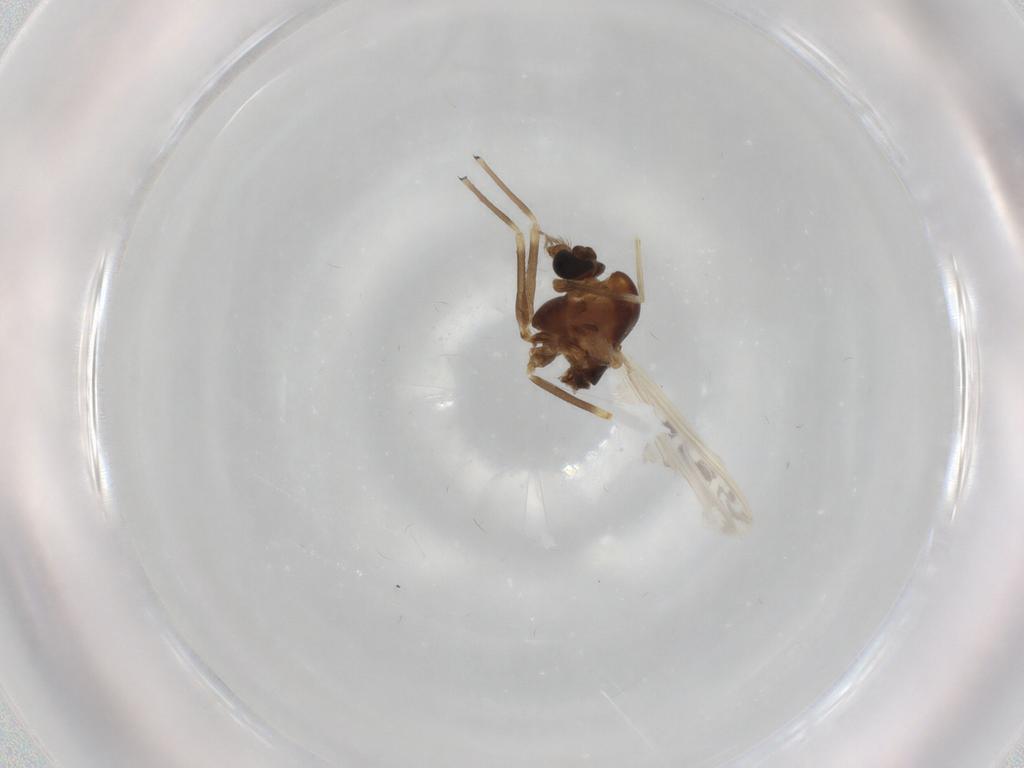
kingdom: Animalia
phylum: Arthropoda
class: Insecta
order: Diptera
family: Chironomidae
